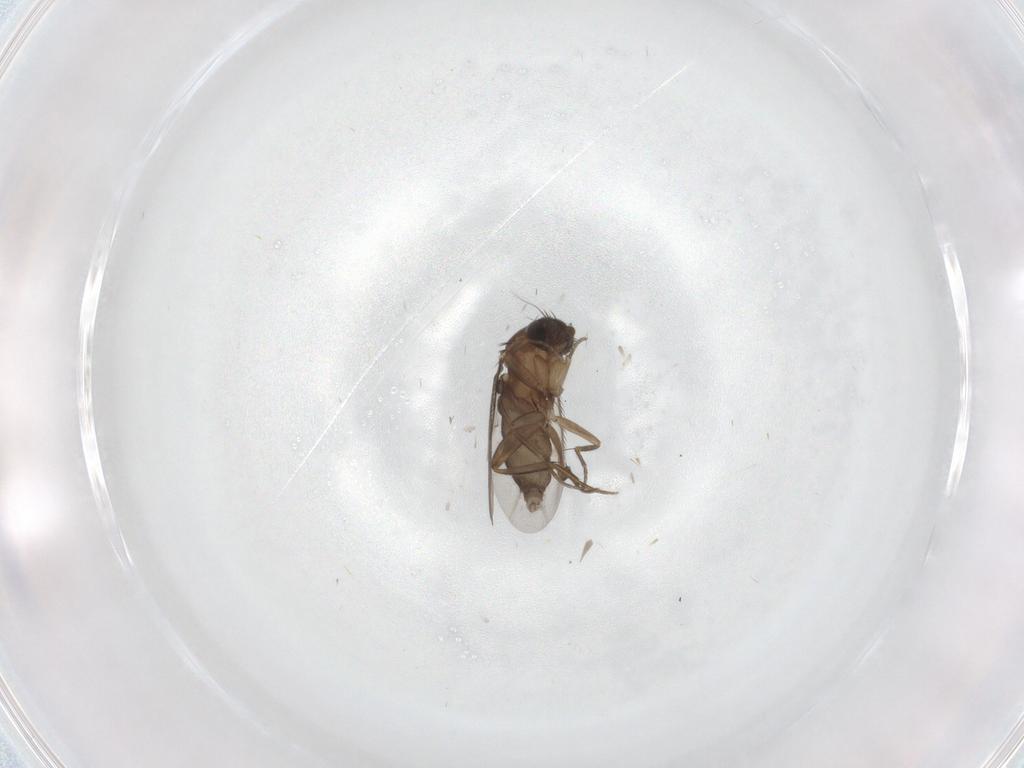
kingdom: Animalia
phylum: Arthropoda
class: Insecta
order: Diptera
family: Phoridae
